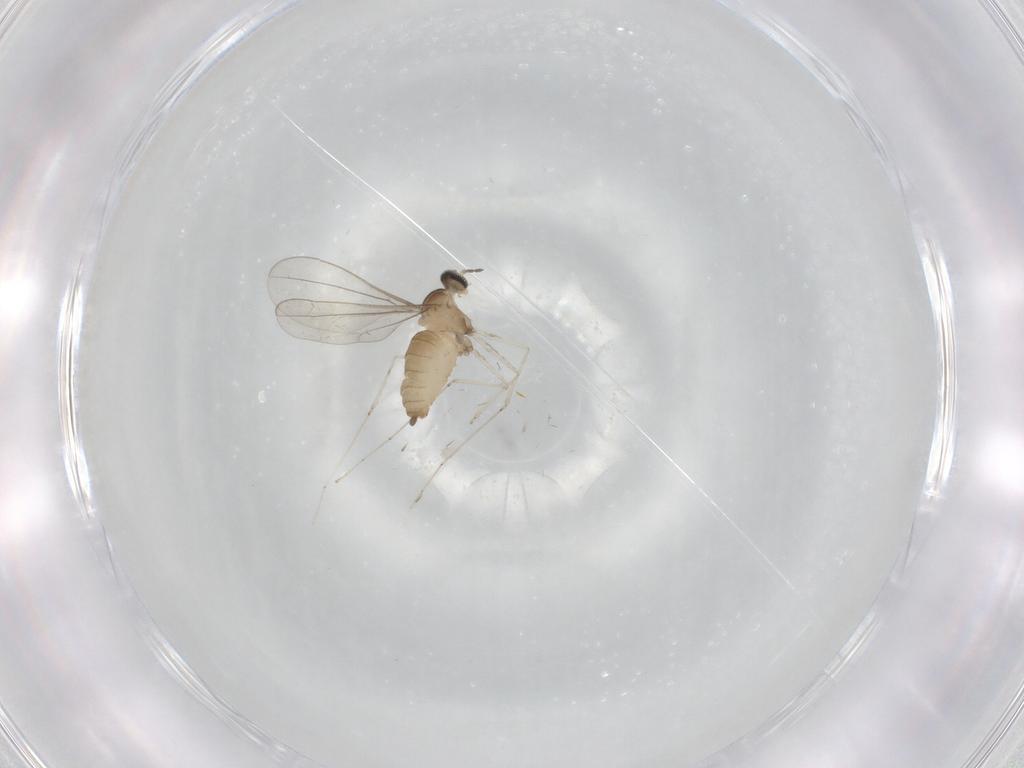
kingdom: Animalia
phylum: Arthropoda
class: Insecta
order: Diptera
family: Cecidomyiidae
